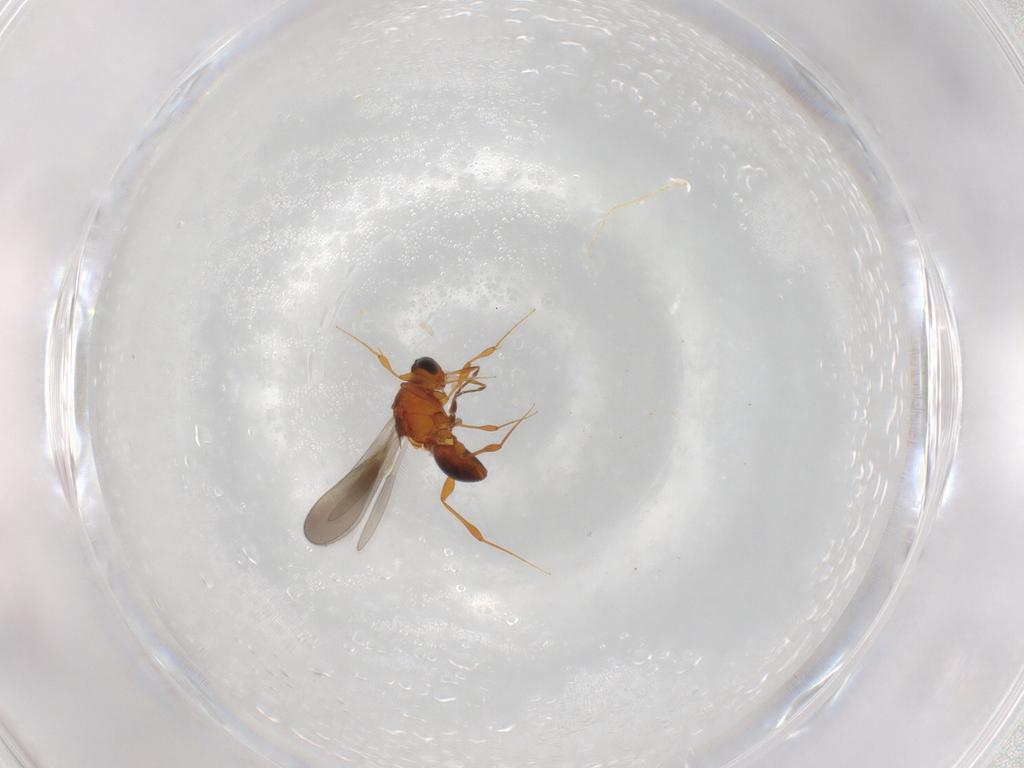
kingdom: Animalia
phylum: Arthropoda
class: Insecta
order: Hymenoptera
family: Platygastridae
